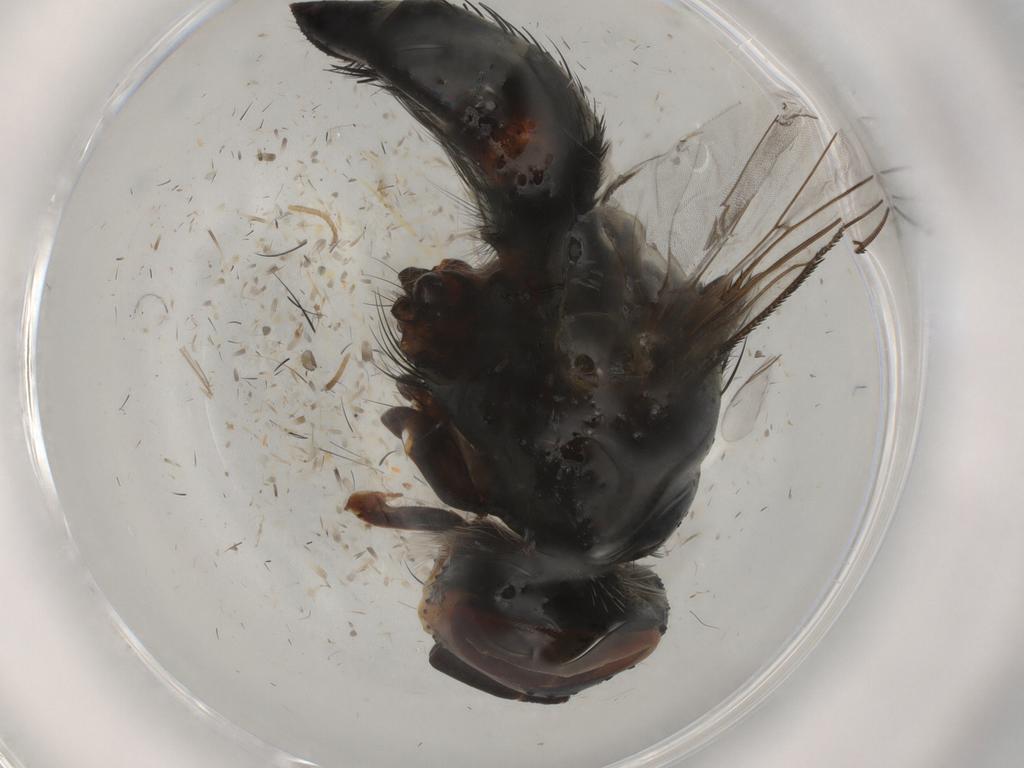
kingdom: Animalia
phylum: Arthropoda
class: Insecta
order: Diptera
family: Tachinidae
